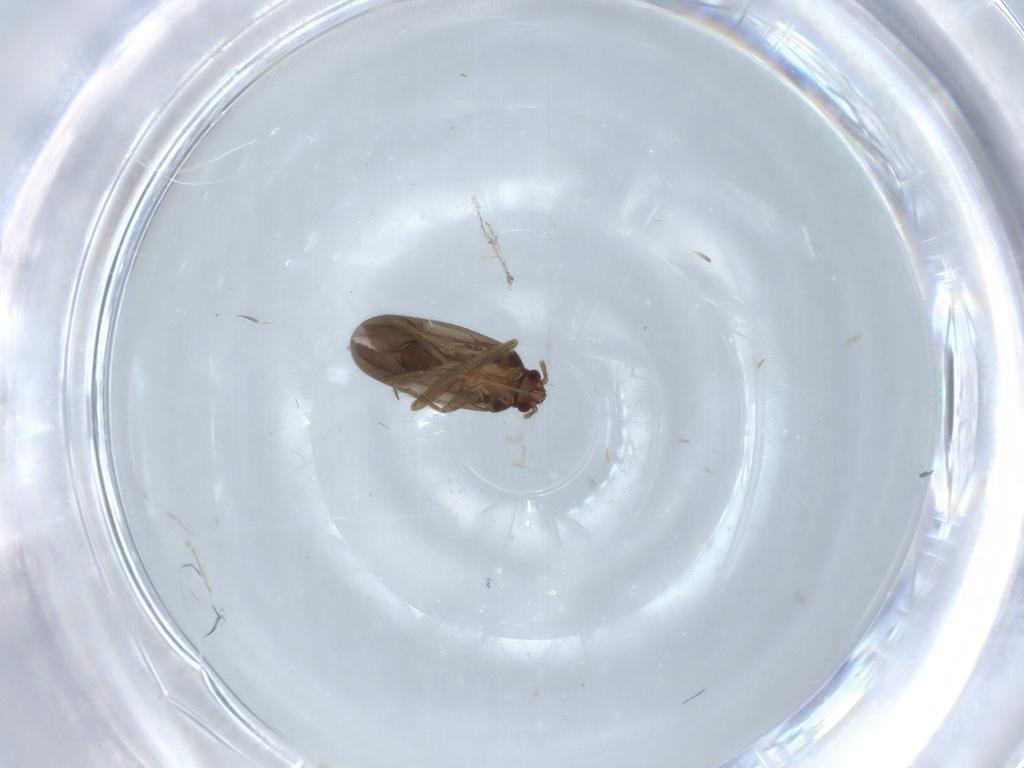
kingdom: Animalia
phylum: Arthropoda
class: Insecta
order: Hemiptera
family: Ceratocombidae
